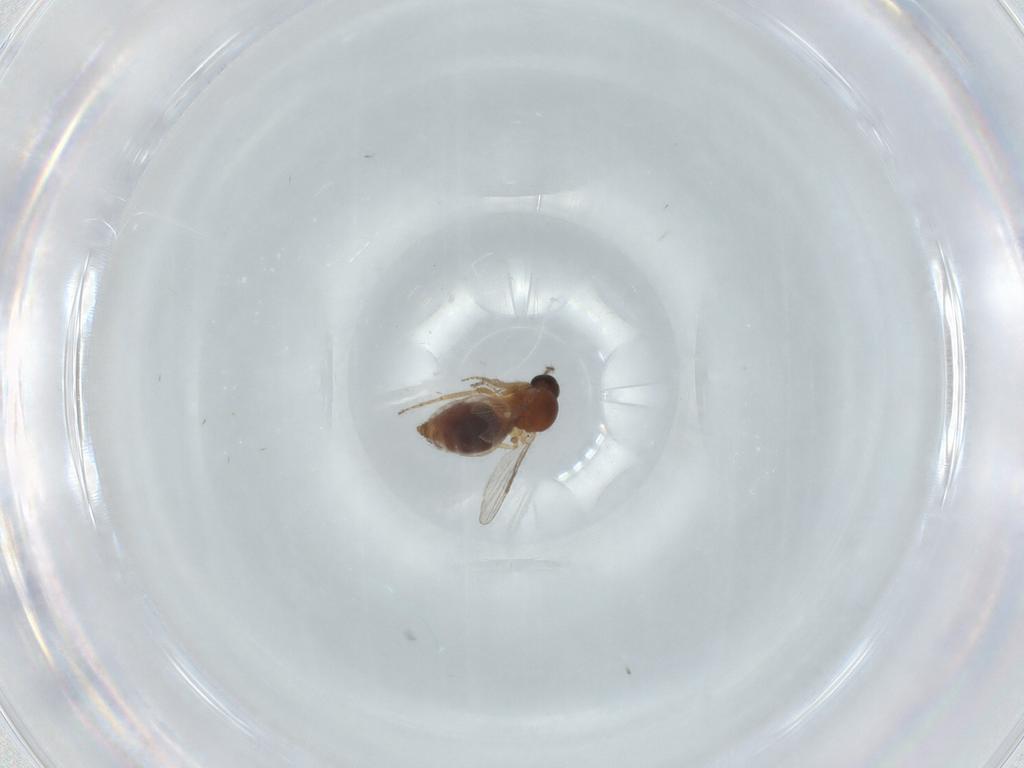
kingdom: Animalia
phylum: Arthropoda
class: Insecta
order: Diptera
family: Ceratopogonidae
